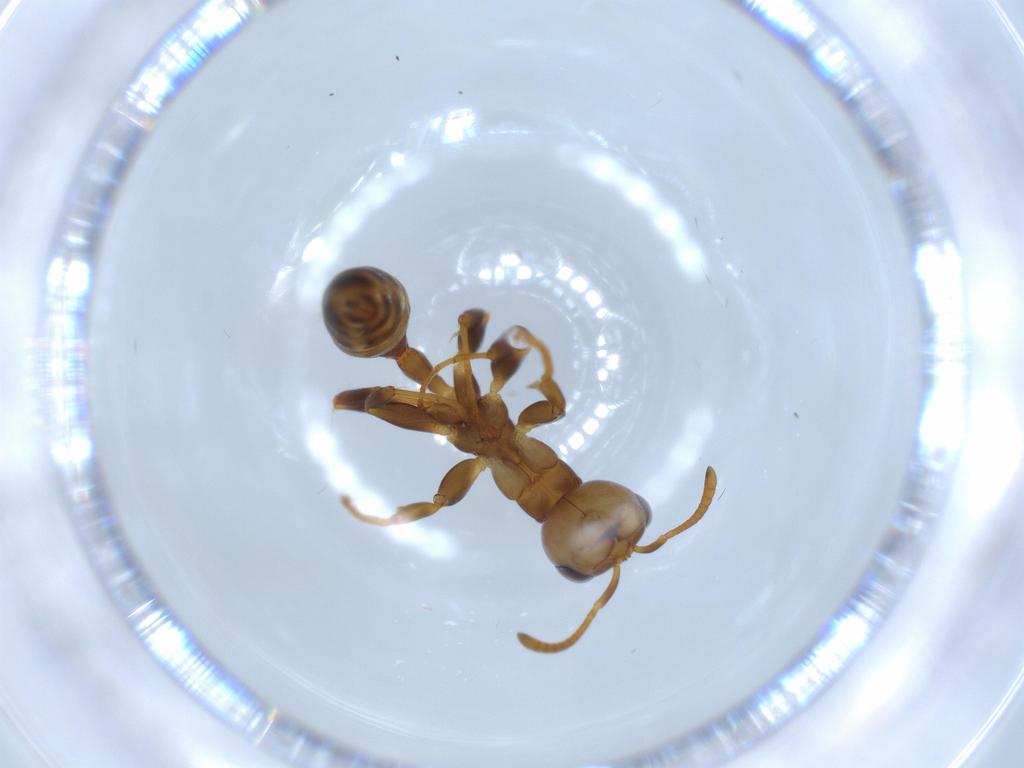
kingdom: Animalia
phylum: Arthropoda
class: Insecta
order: Hymenoptera
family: Formicidae
